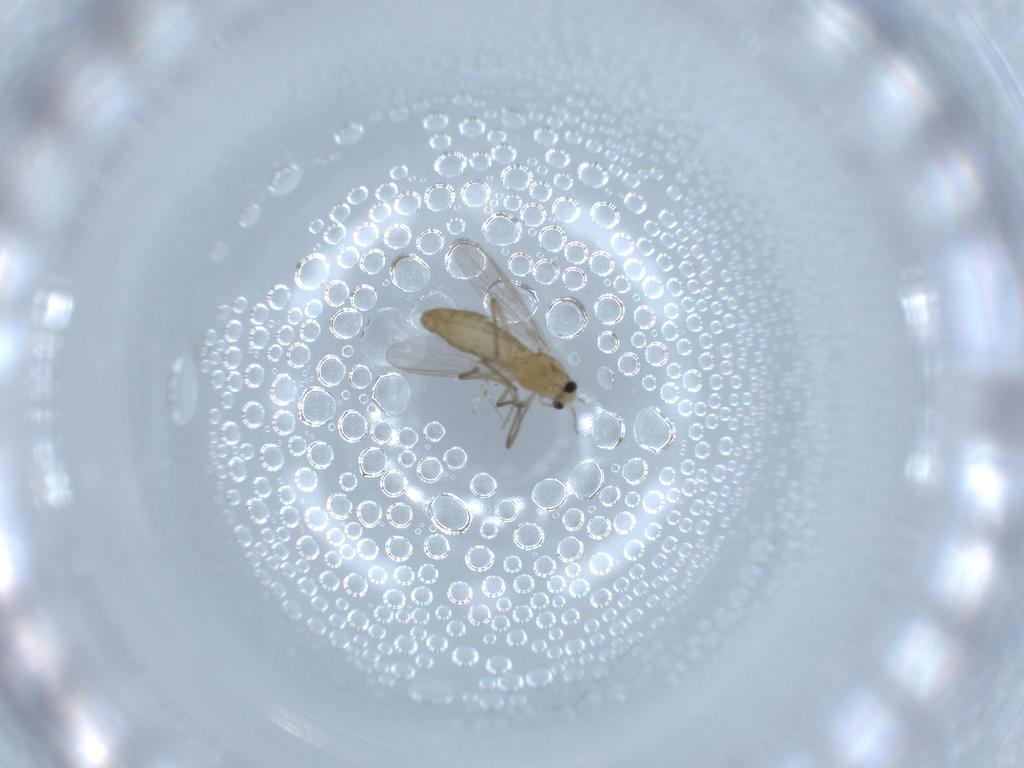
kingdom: Animalia
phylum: Arthropoda
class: Insecta
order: Diptera
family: Chironomidae
